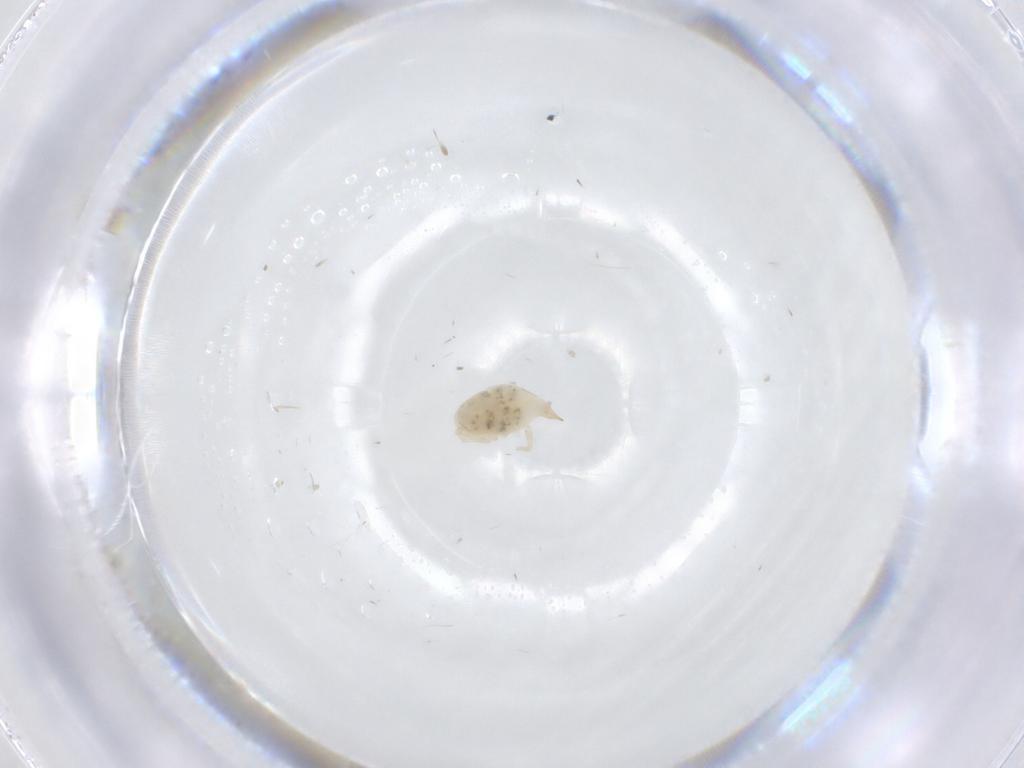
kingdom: Animalia
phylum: Arthropoda
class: Arachnida
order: Trombidiformes
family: Bdellidae
